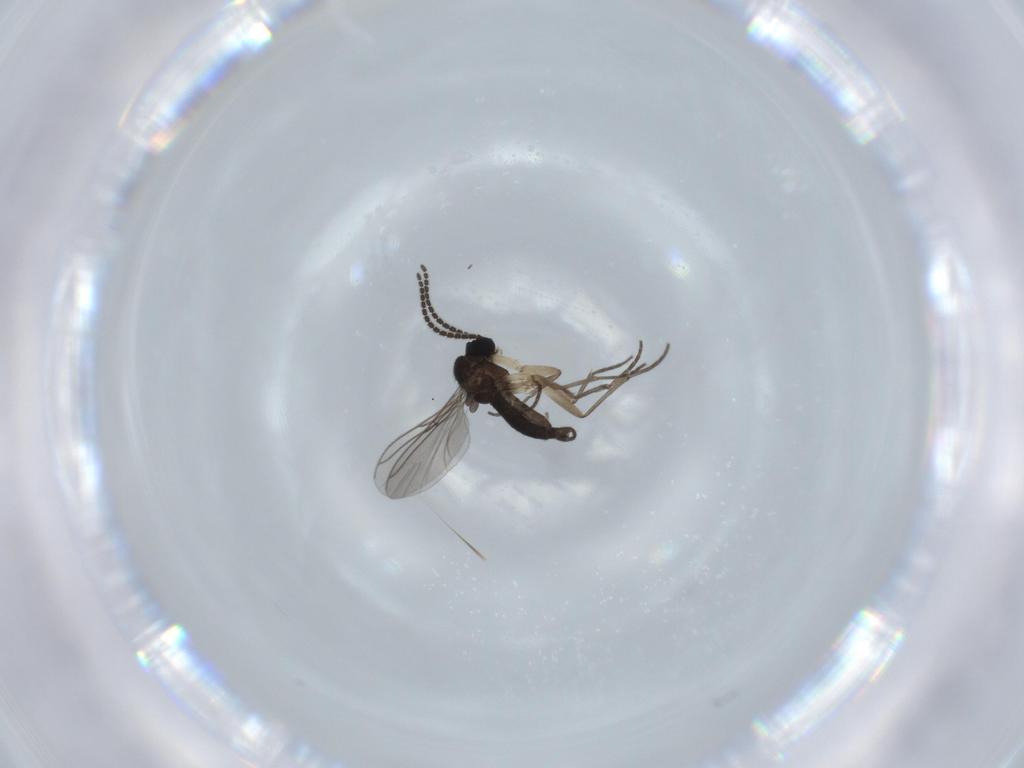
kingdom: Animalia
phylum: Arthropoda
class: Insecta
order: Diptera
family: Sciaridae
